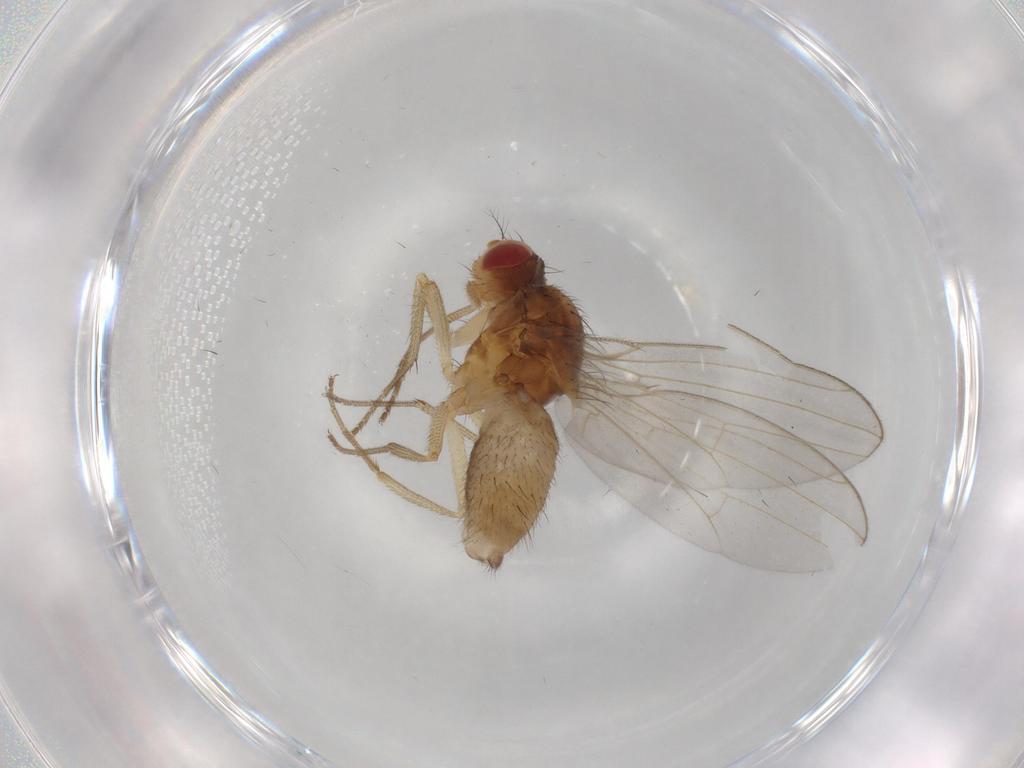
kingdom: Animalia
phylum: Arthropoda
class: Insecta
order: Diptera
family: Drosophilidae
